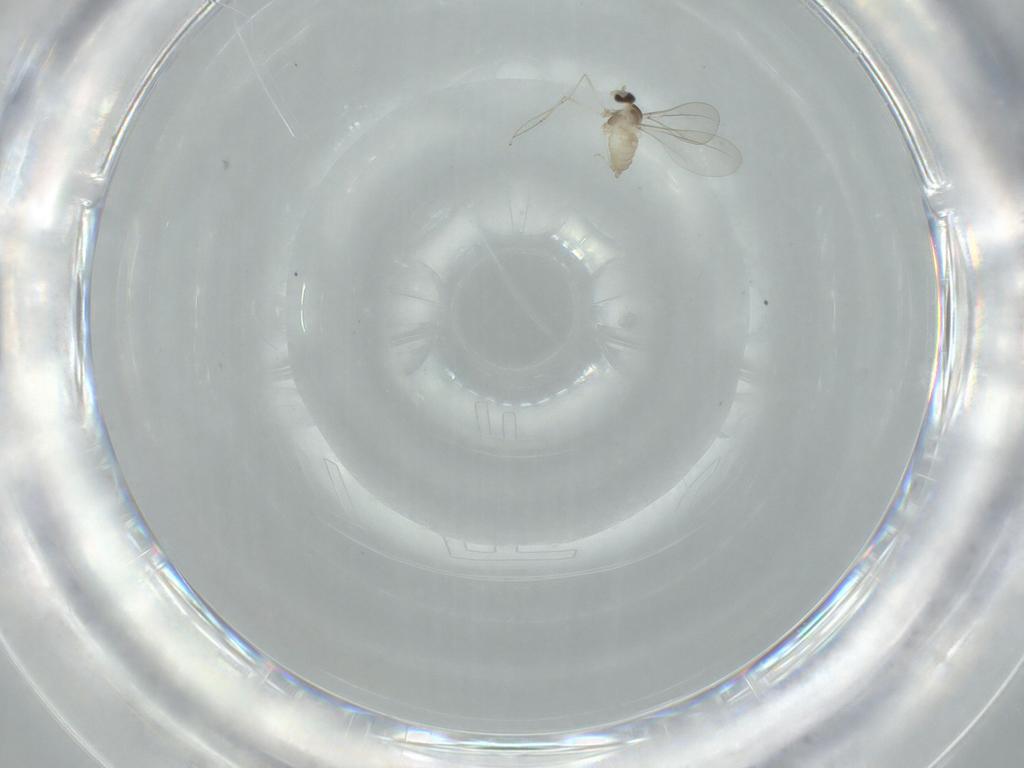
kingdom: Animalia
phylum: Arthropoda
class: Insecta
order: Diptera
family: Cecidomyiidae
